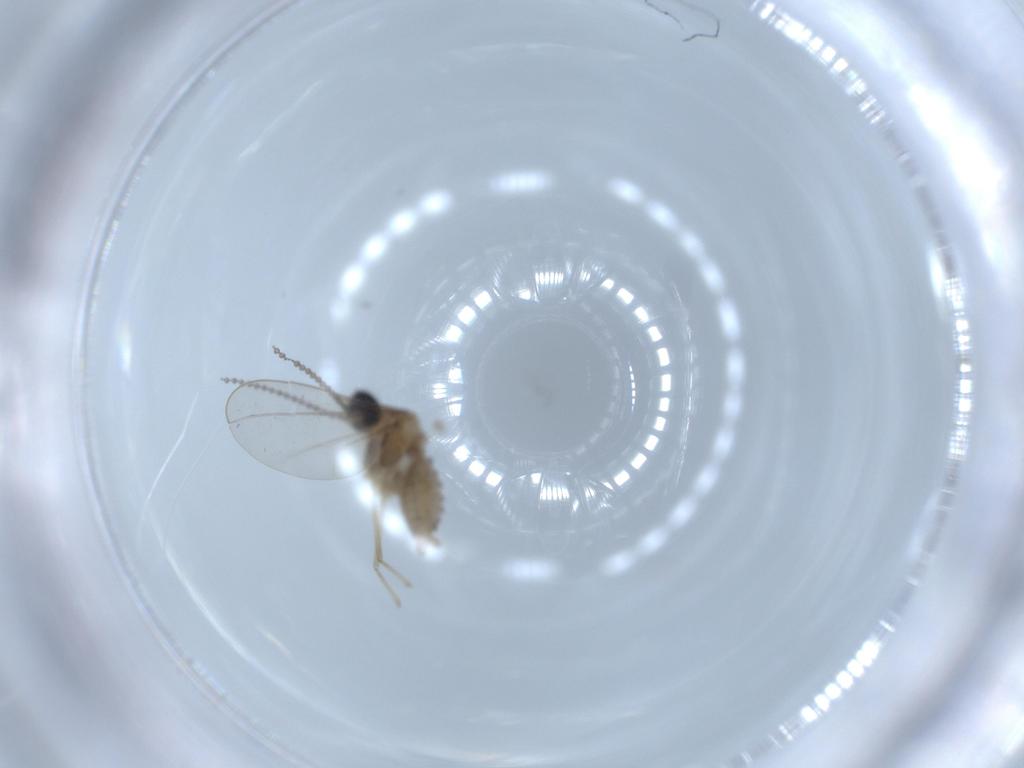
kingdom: Animalia
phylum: Arthropoda
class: Insecta
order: Diptera
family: Cecidomyiidae
